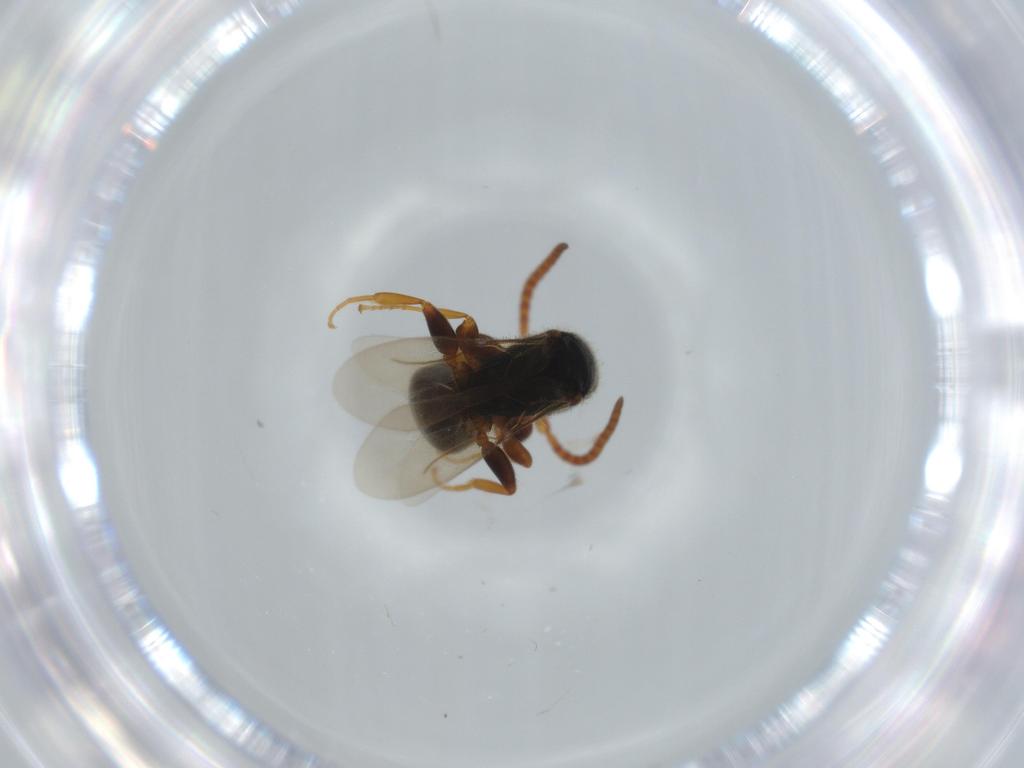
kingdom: Animalia
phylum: Arthropoda
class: Insecta
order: Hymenoptera
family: Bethylidae
